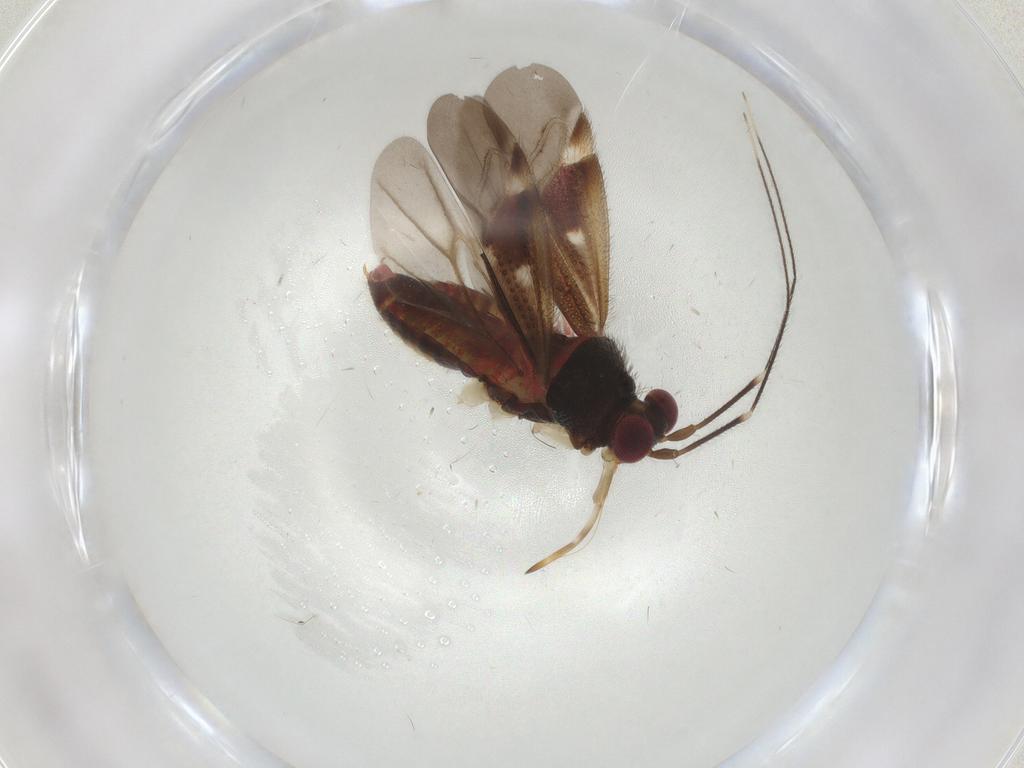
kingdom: Animalia
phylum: Arthropoda
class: Insecta
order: Hemiptera
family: Miridae
